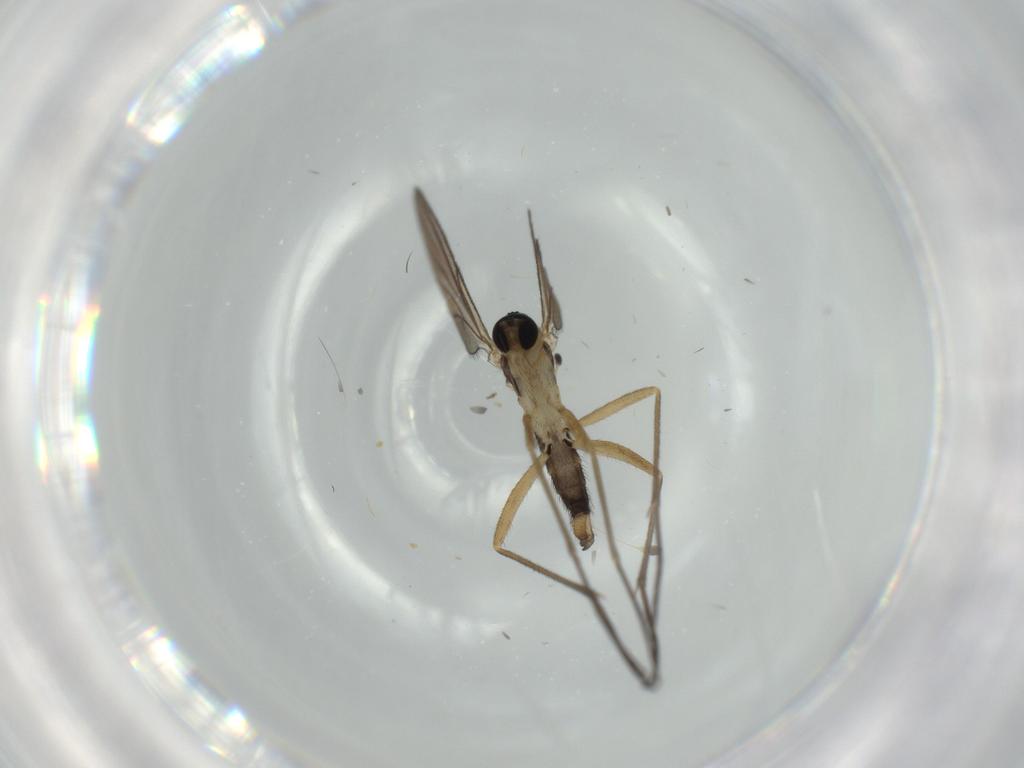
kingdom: Animalia
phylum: Arthropoda
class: Insecta
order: Diptera
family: Sciaridae
